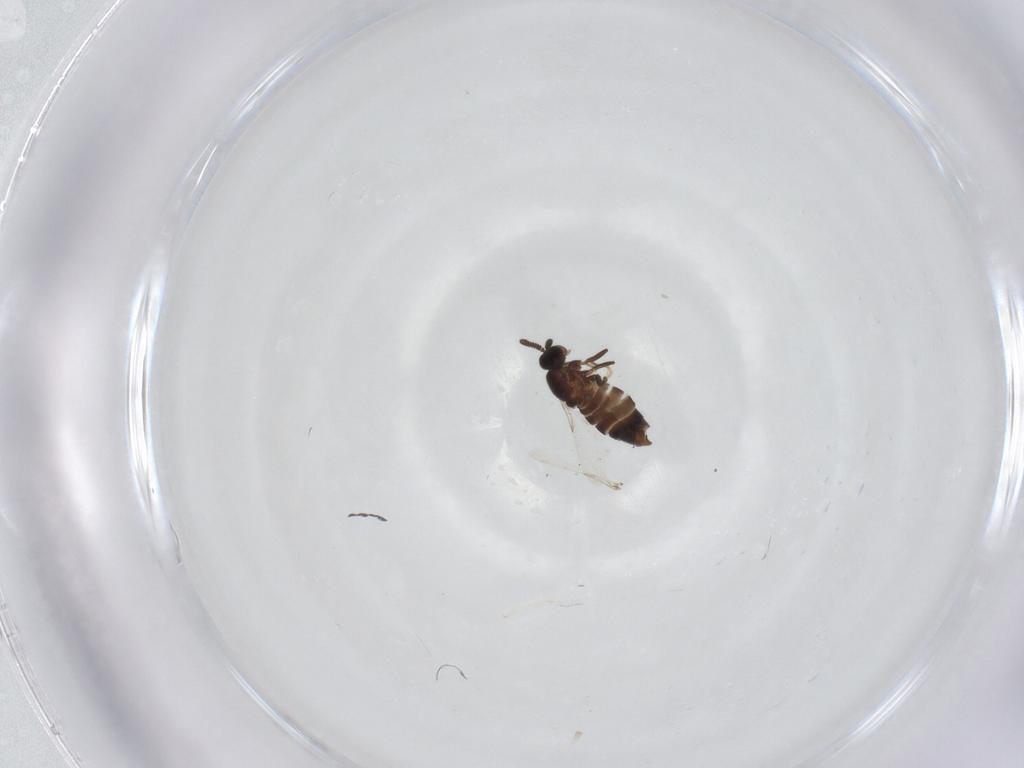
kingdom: Animalia
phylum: Arthropoda
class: Insecta
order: Diptera
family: Scatopsidae
